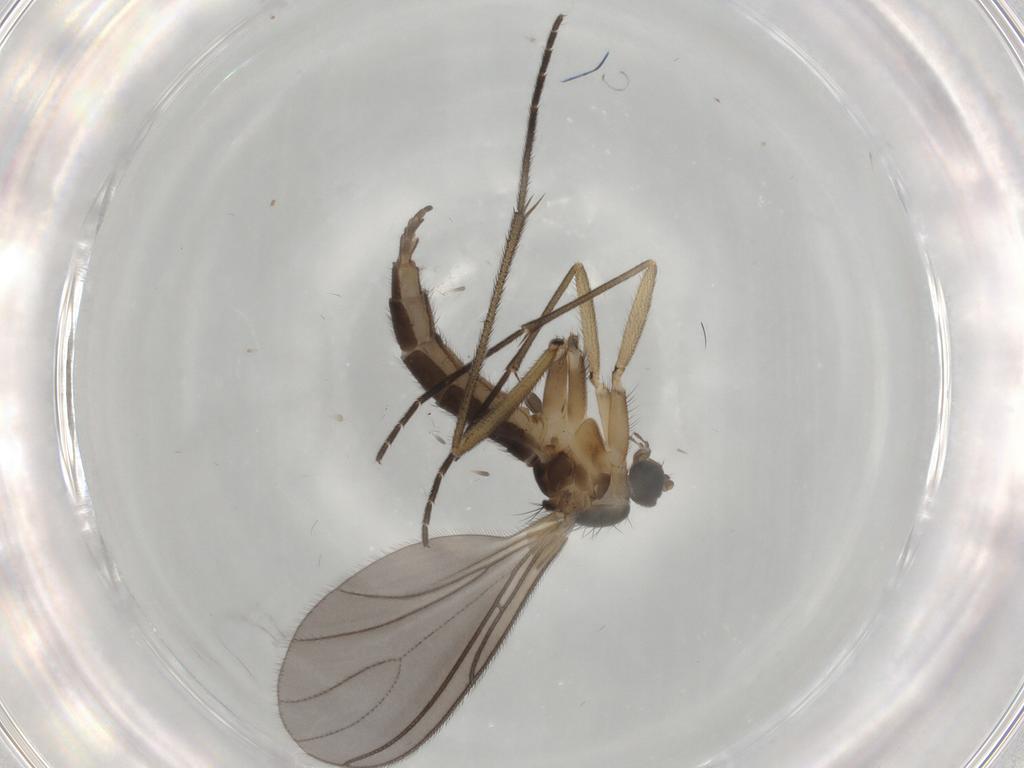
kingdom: Animalia
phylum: Arthropoda
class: Insecta
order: Diptera
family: Sciaridae
